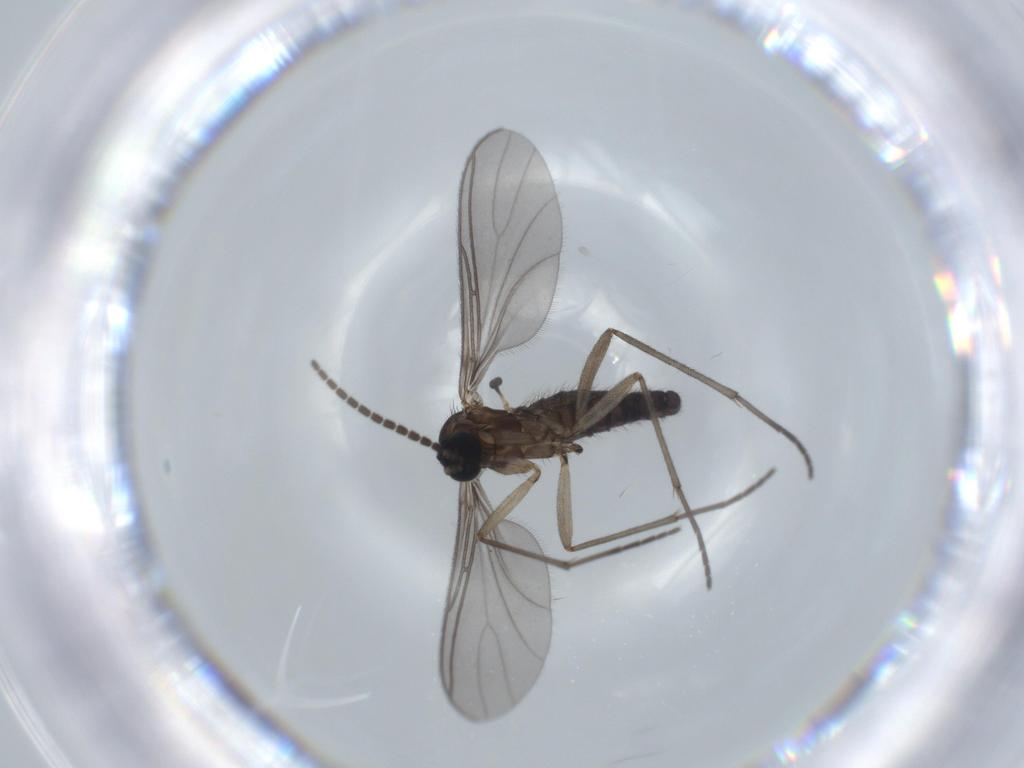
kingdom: Animalia
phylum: Arthropoda
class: Insecta
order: Diptera
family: Sciaridae
